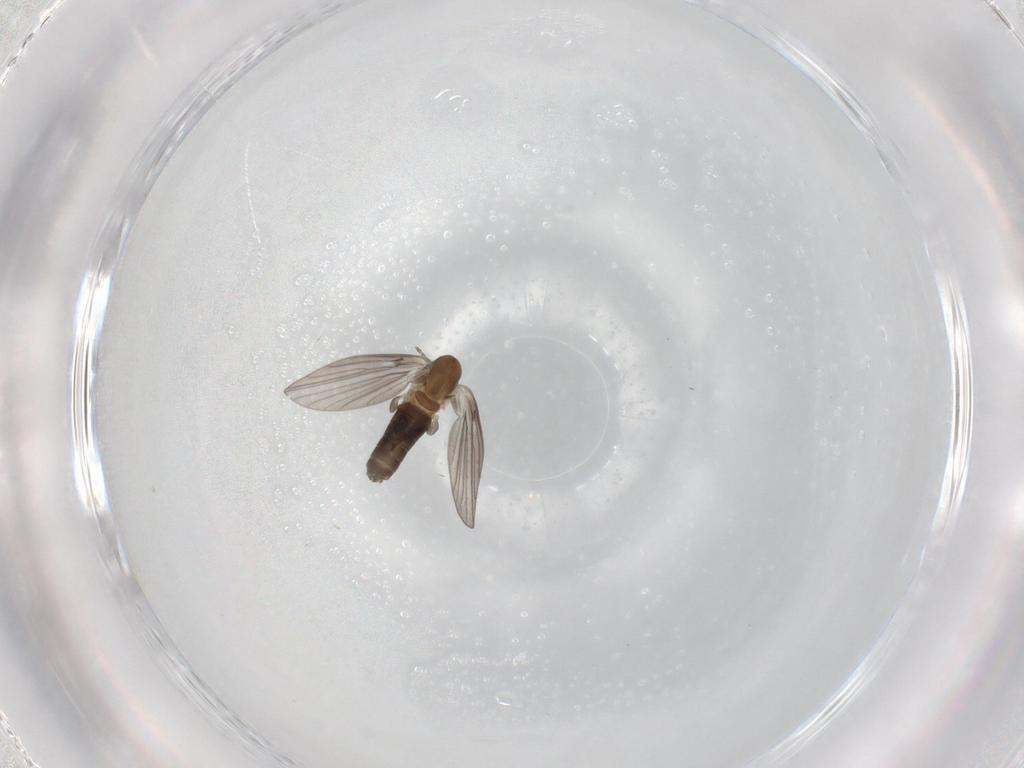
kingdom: Animalia
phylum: Arthropoda
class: Insecta
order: Diptera
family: Psychodidae
